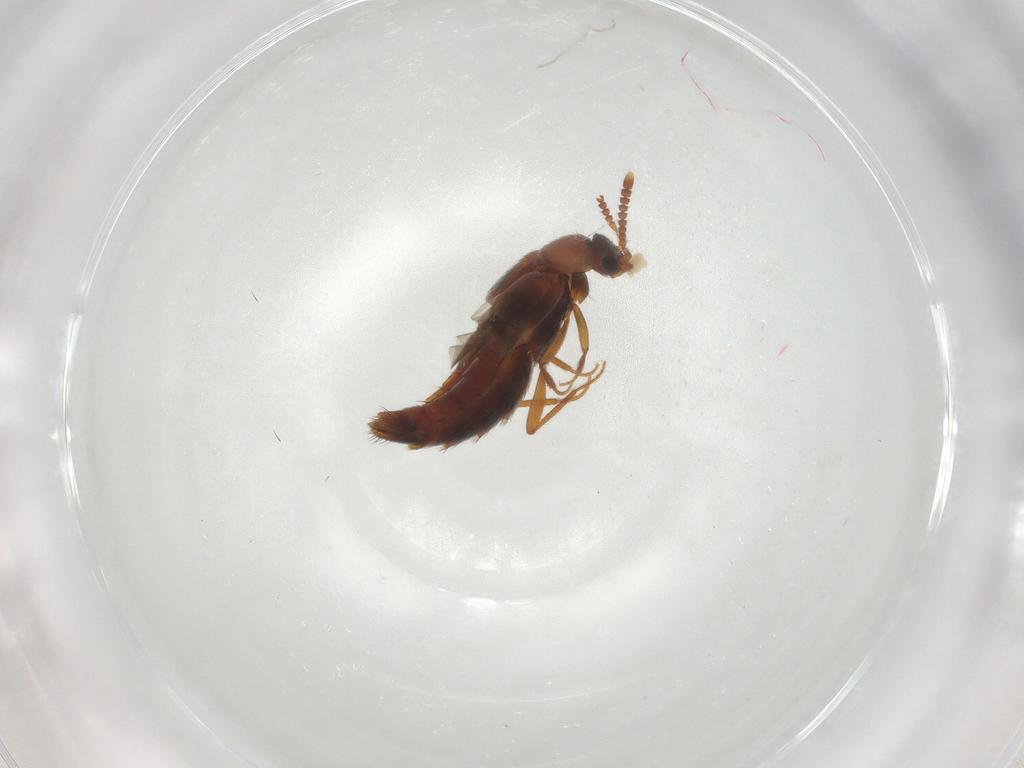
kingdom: Animalia
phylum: Arthropoda
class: Insecta
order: Coleoptera
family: Staphylinidae
